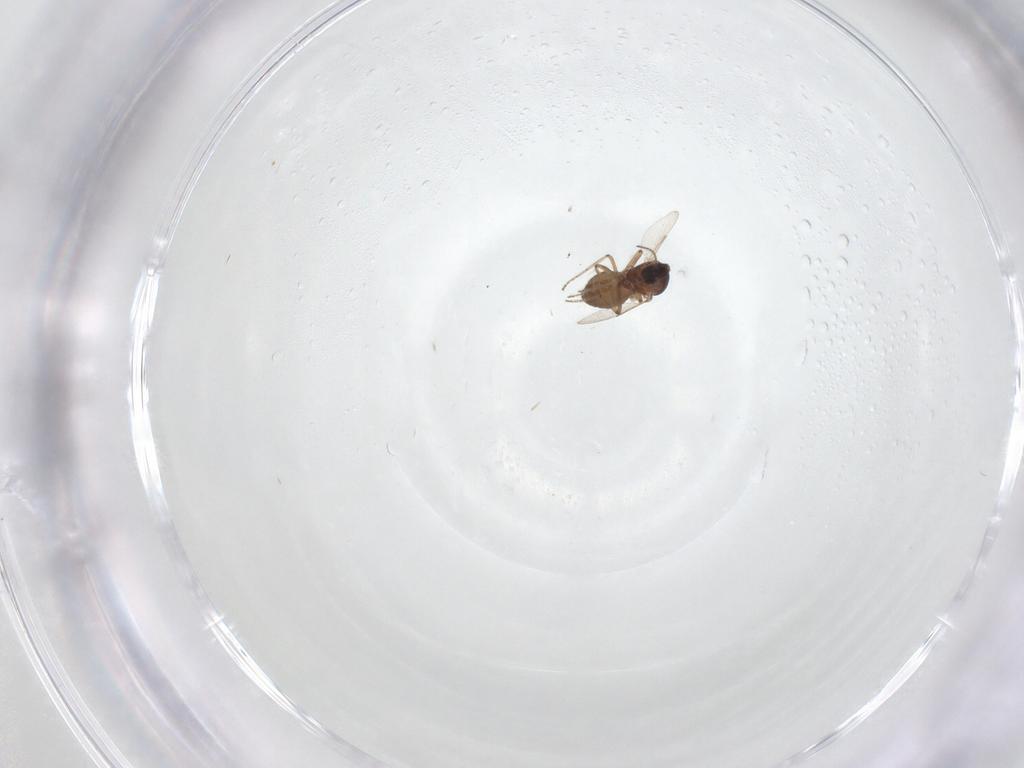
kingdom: Animalia
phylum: Arthropoda
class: Insecta
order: Diptera
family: Ceratopogonidae
